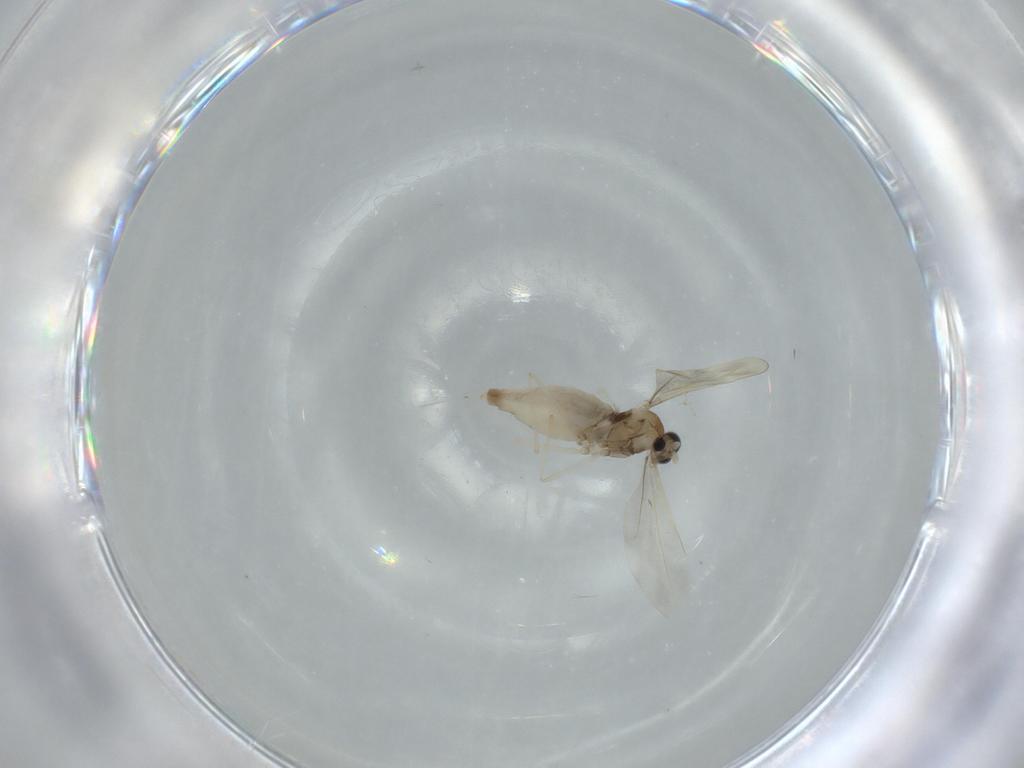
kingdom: Animalia
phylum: Arthropoda
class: Insecta
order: Diptera
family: Cecidomyiidae
